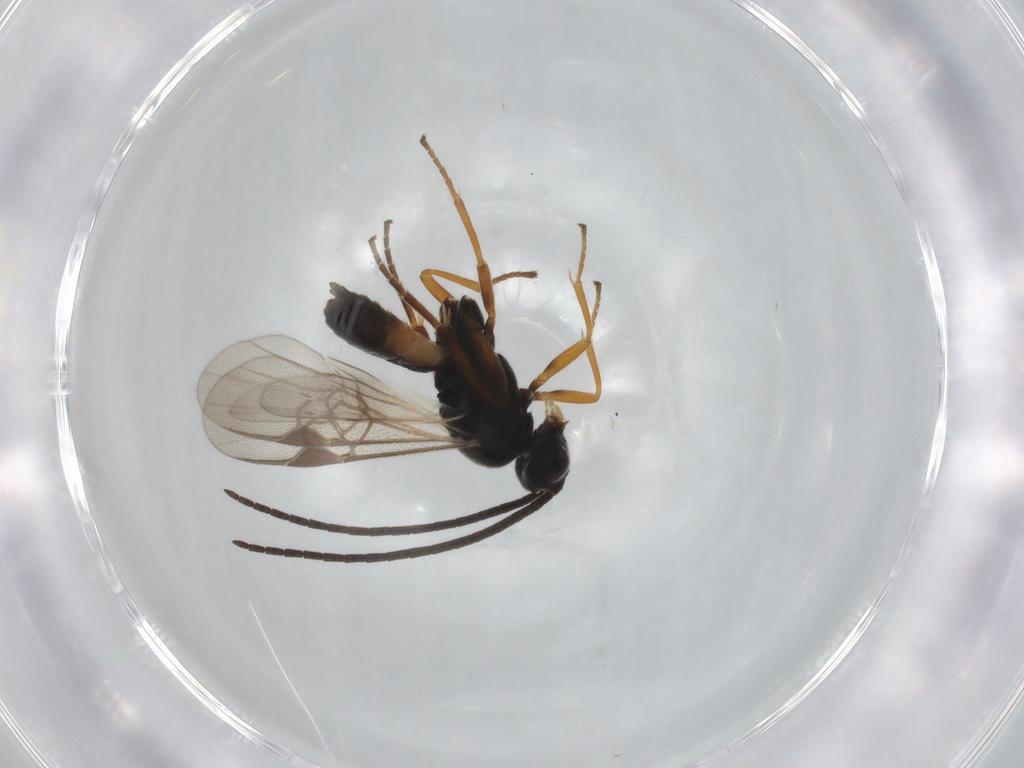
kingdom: Animalia
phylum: Arthropoda
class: Insecta
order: Hymenoptera
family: Braconidae
